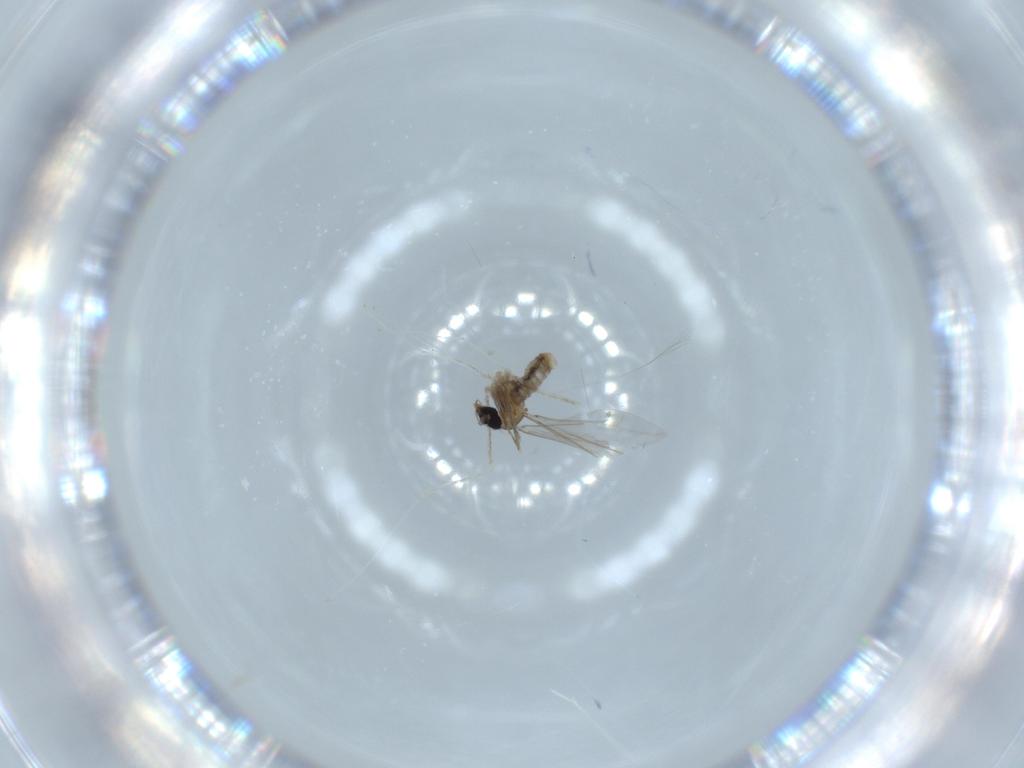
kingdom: Animalia
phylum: Arthropoda
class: Insecta
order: Diptera
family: Cecidomyiidae
